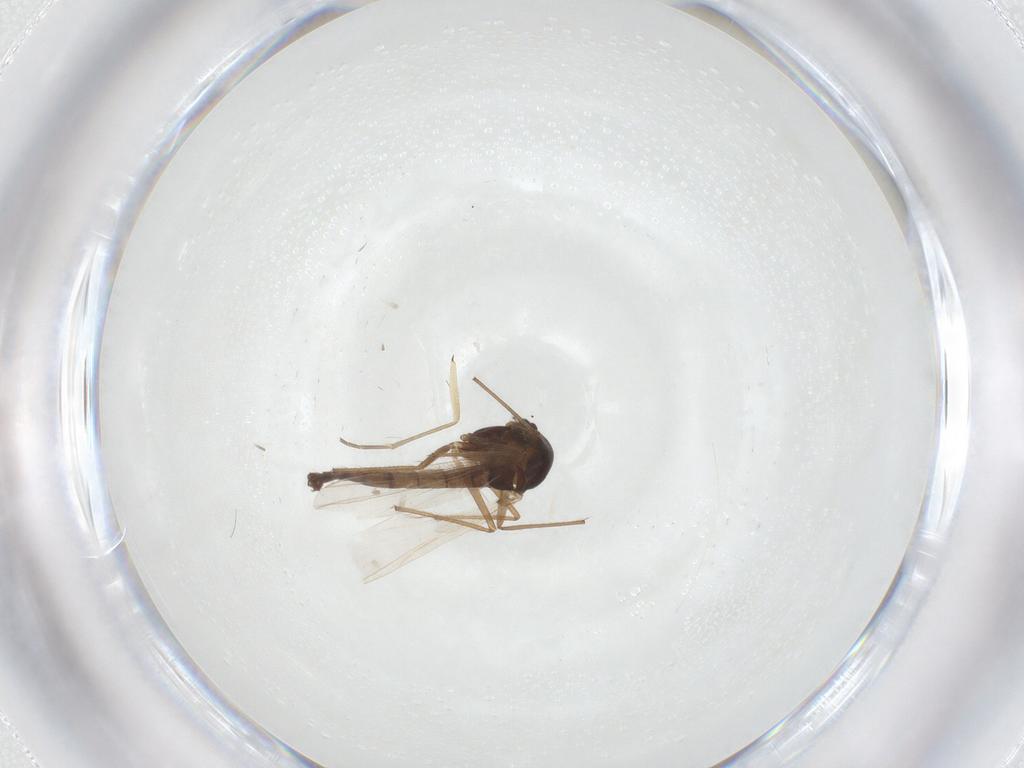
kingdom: Animalia
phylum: Arthropoda
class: Insecta
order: Diptera
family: Chironomidae
